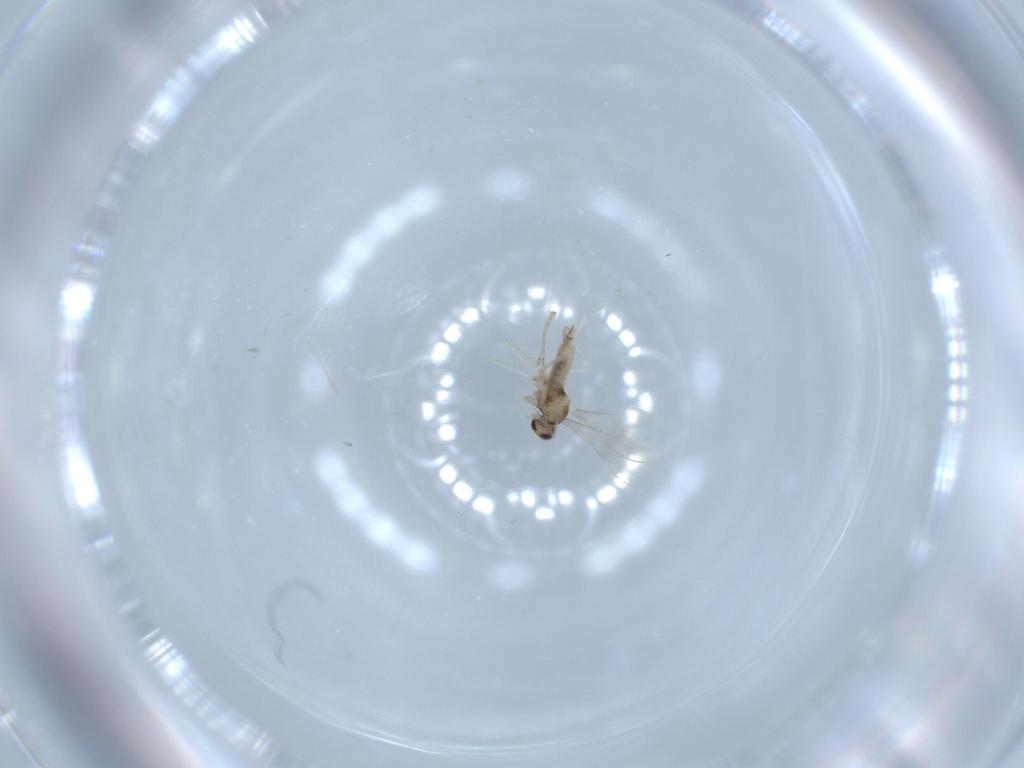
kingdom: Animalia
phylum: Arthropoda
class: Insecta
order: Diptera
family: Cecidomyiidae
